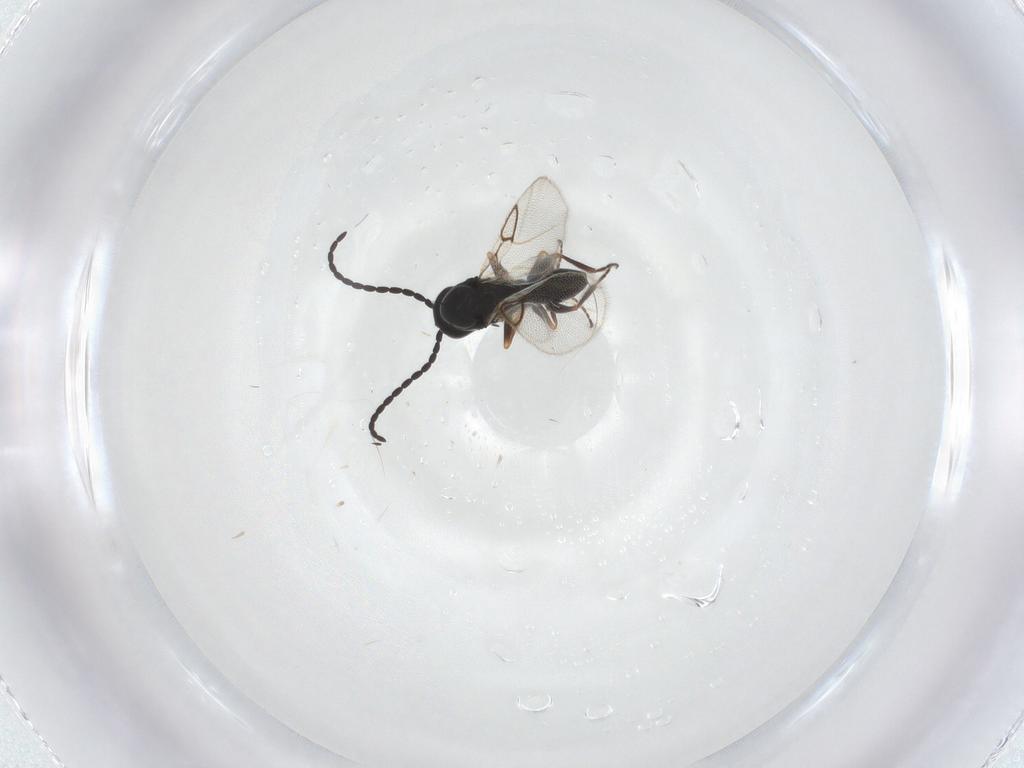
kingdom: Animalia
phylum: Arthropoda
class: Insecta
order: Hymenoptera
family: Figitidae
